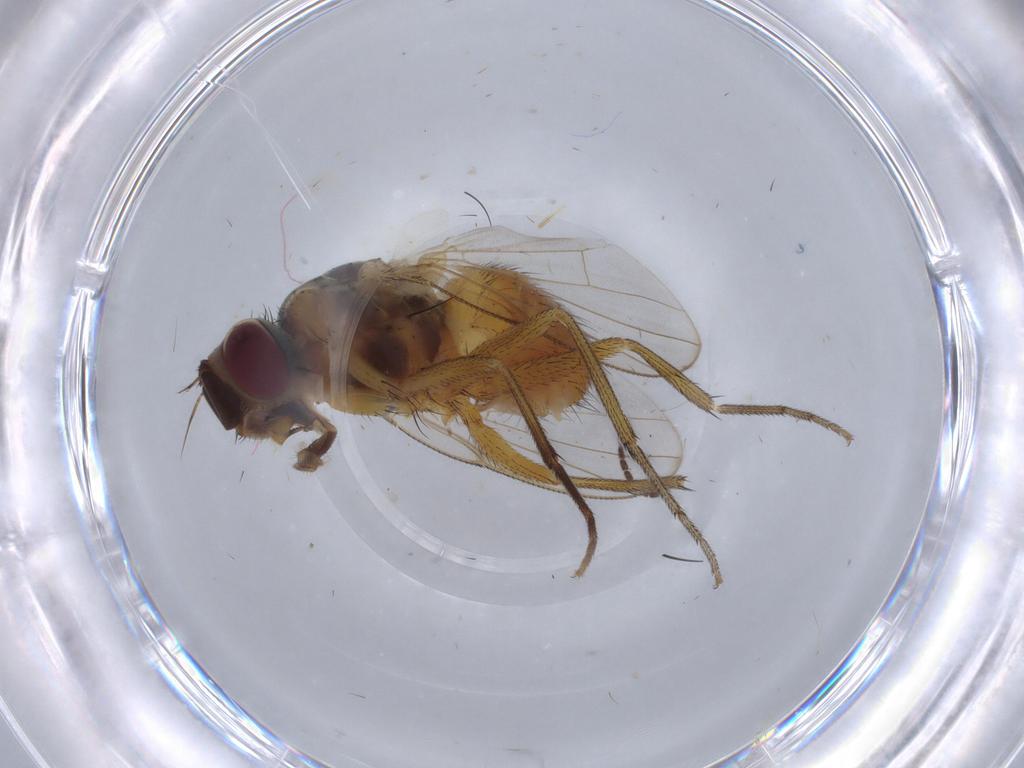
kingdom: Animalia
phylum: Arthropoda
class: Insecta
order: Diptera
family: Muscidae
